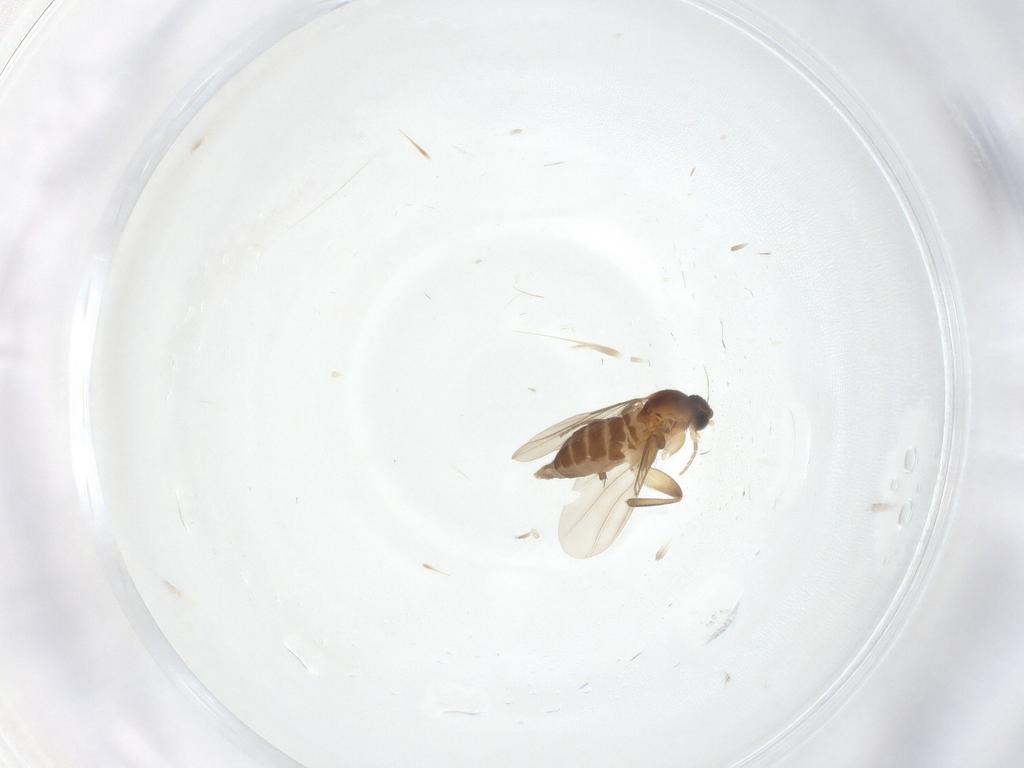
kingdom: Animalia
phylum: Arthropoda
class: Insecta
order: Diptera
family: Phoridae
